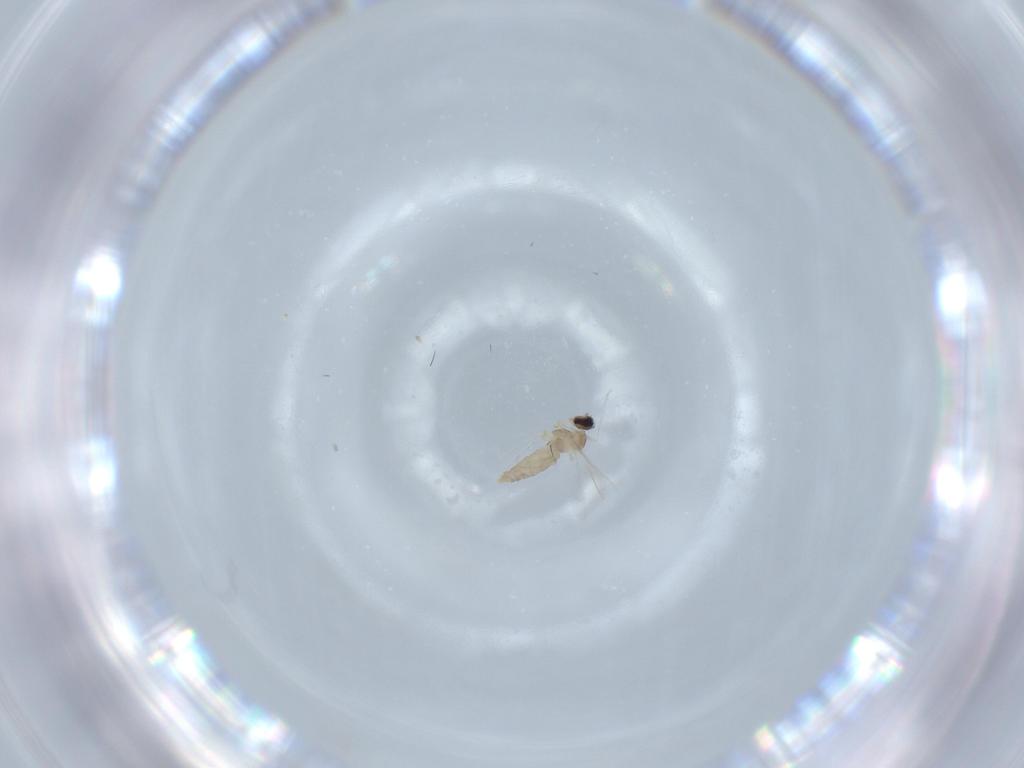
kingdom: Animalia
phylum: Arthropoda
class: Insecta
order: Diptera
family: Cecidomyiidae
